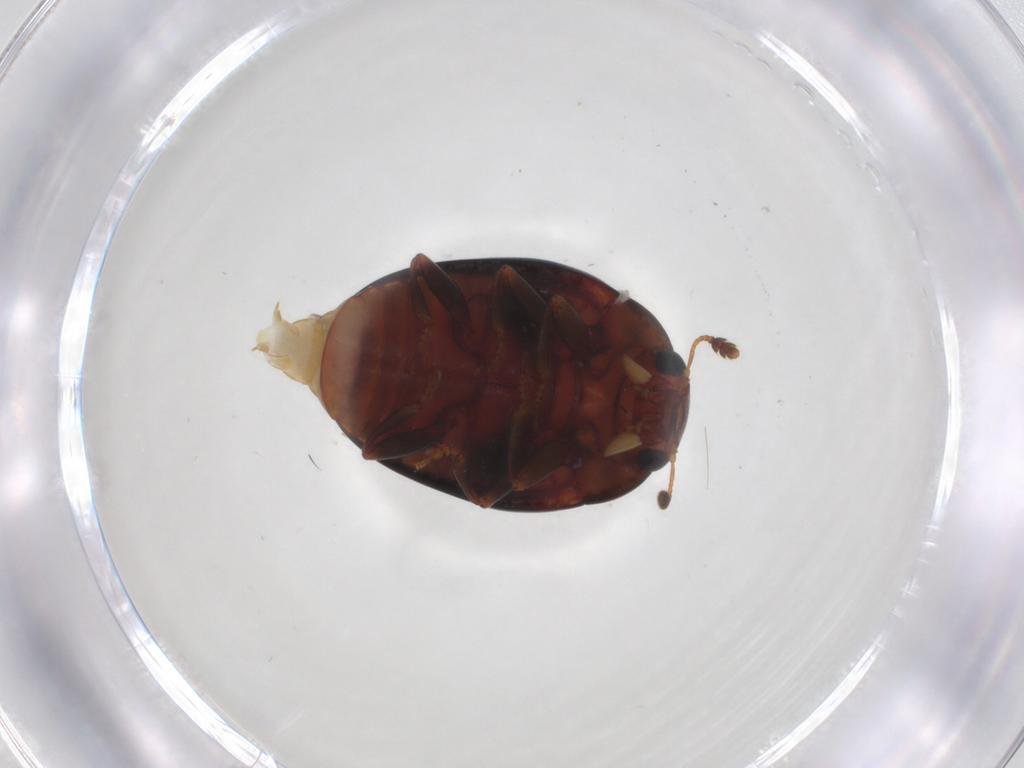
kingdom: Animalia
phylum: Arthropoda
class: Insecta
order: Coleoptera
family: Erotylidae
